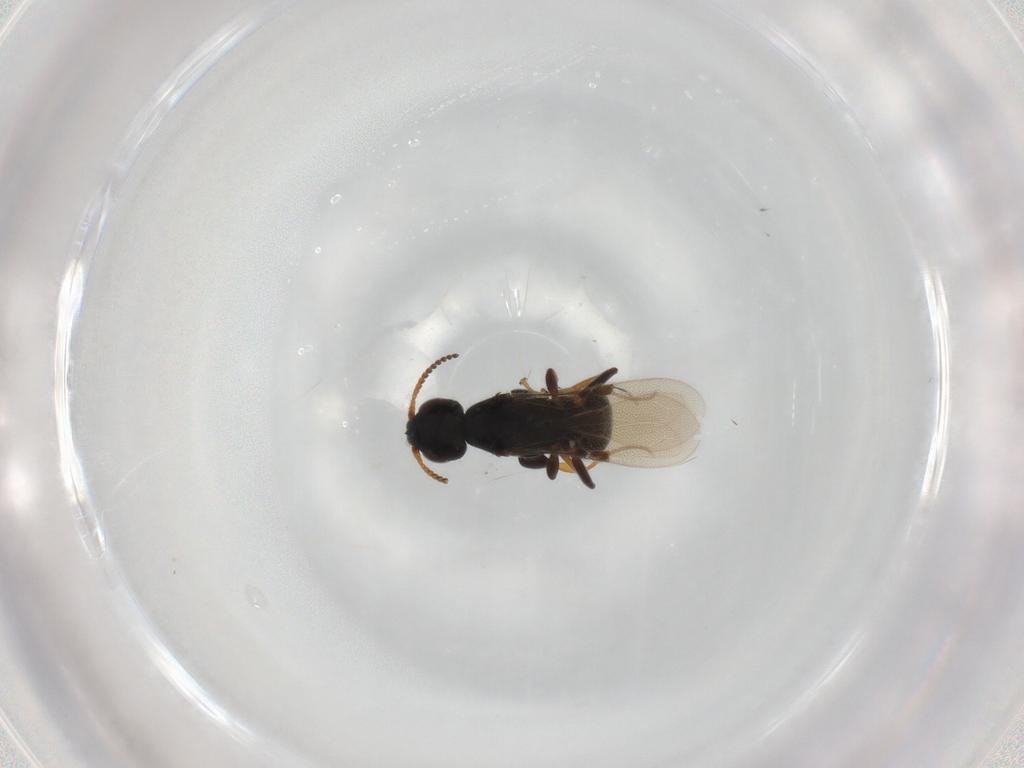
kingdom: Animalia
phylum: Arthropoda
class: Insecta
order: Hymenoptera
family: Bethylidae
